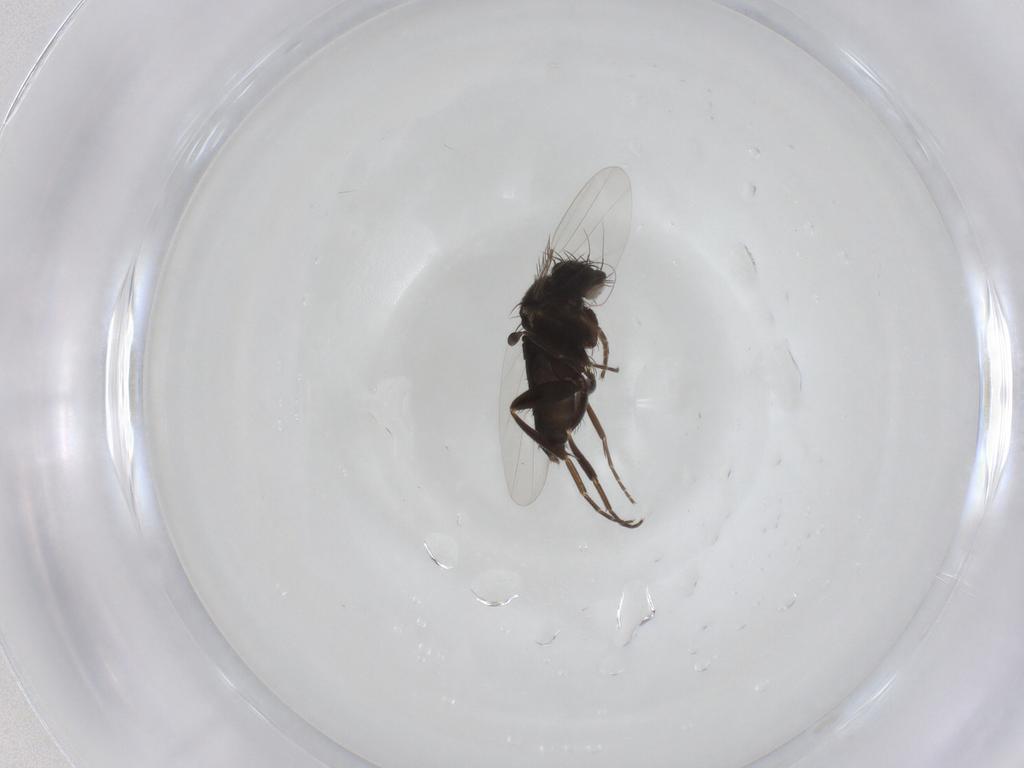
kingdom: Animalia
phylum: Arthropoda
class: Insecta
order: Diptera
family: Phoridae
